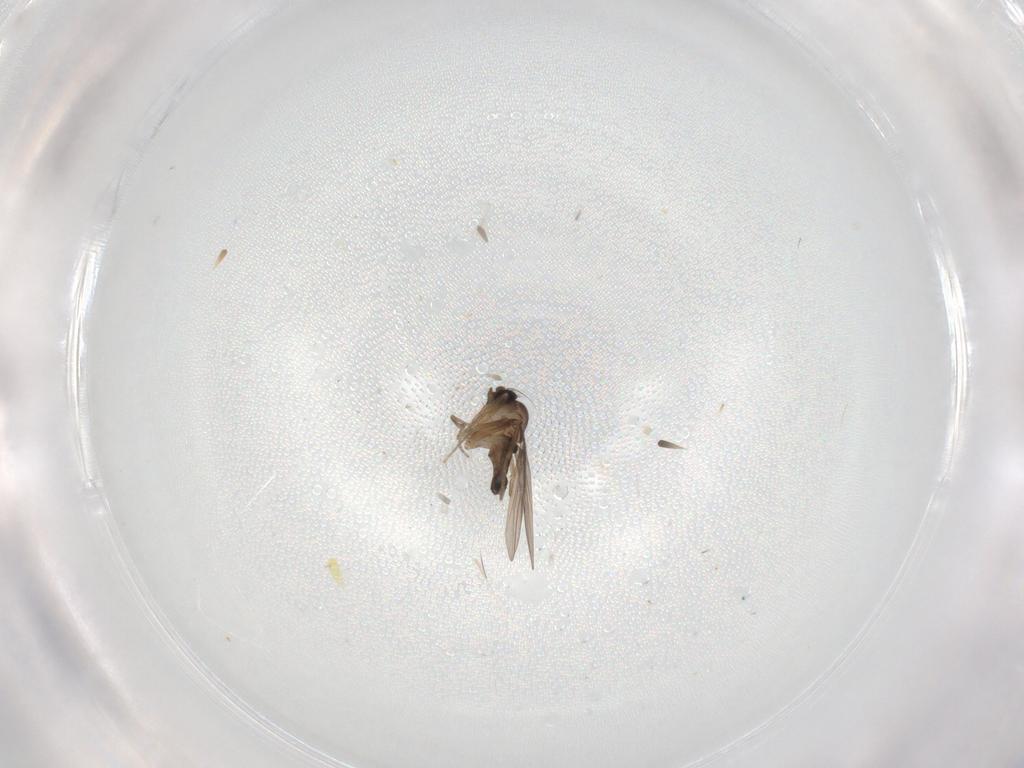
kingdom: Animalia
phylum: Arthropoda
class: Insecta
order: Diptera
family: Phoridae
